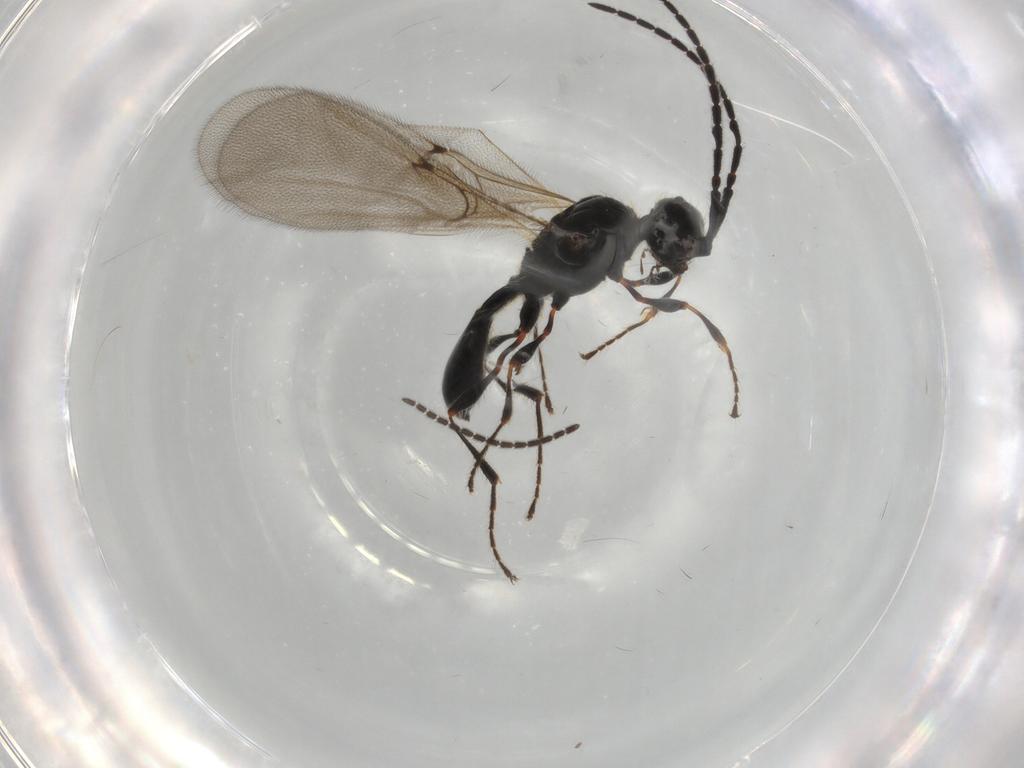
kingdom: Animalia
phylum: Arthropoda
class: Insecta
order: Hymenoptera
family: Diapriidae
